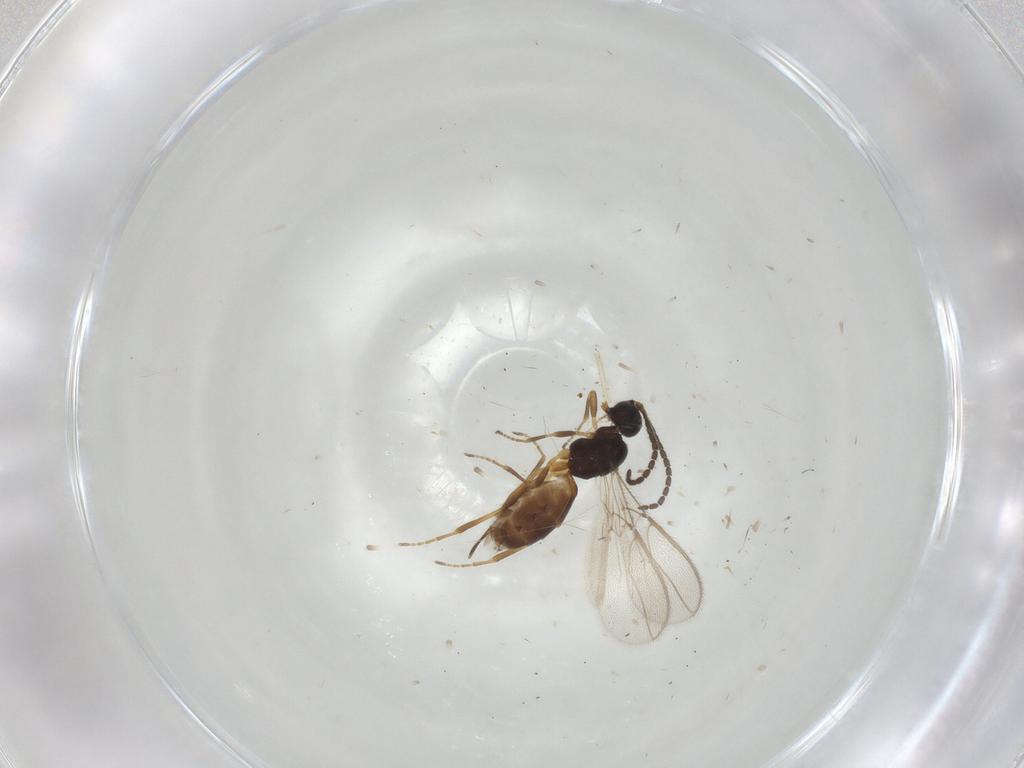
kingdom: Animalia
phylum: Arthropoda
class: Insecta
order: Hymenoptera
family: Braconidae
